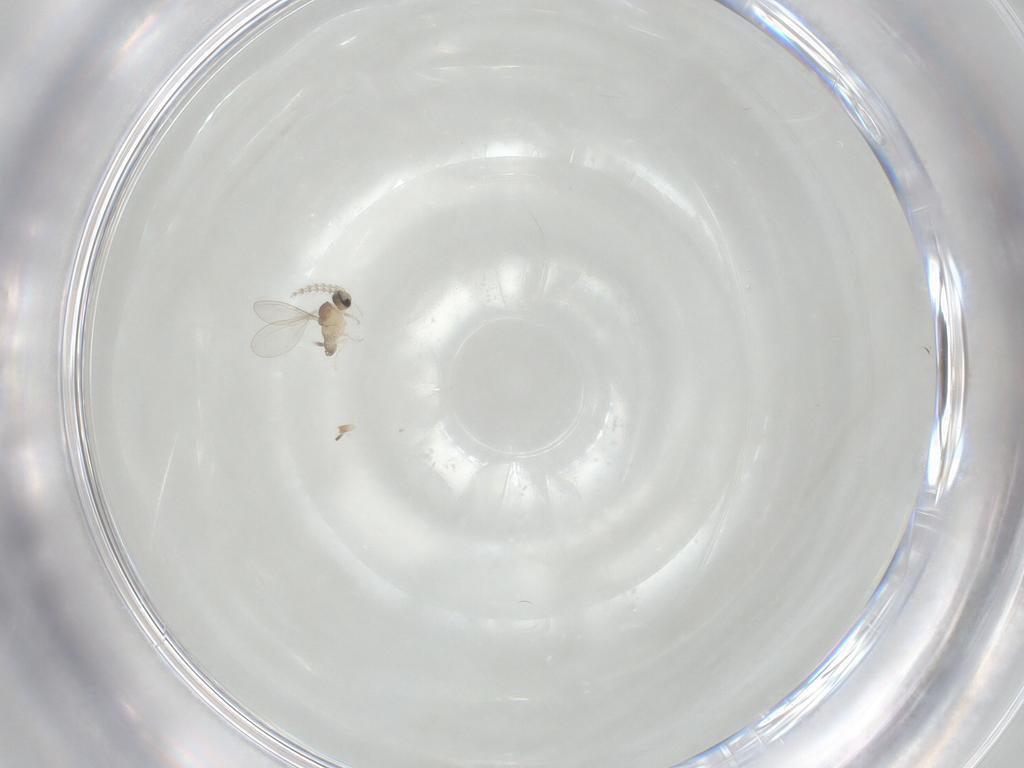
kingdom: Animalia
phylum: Arthropoda
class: Insecta
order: Diptera
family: Cecidomyiidae
